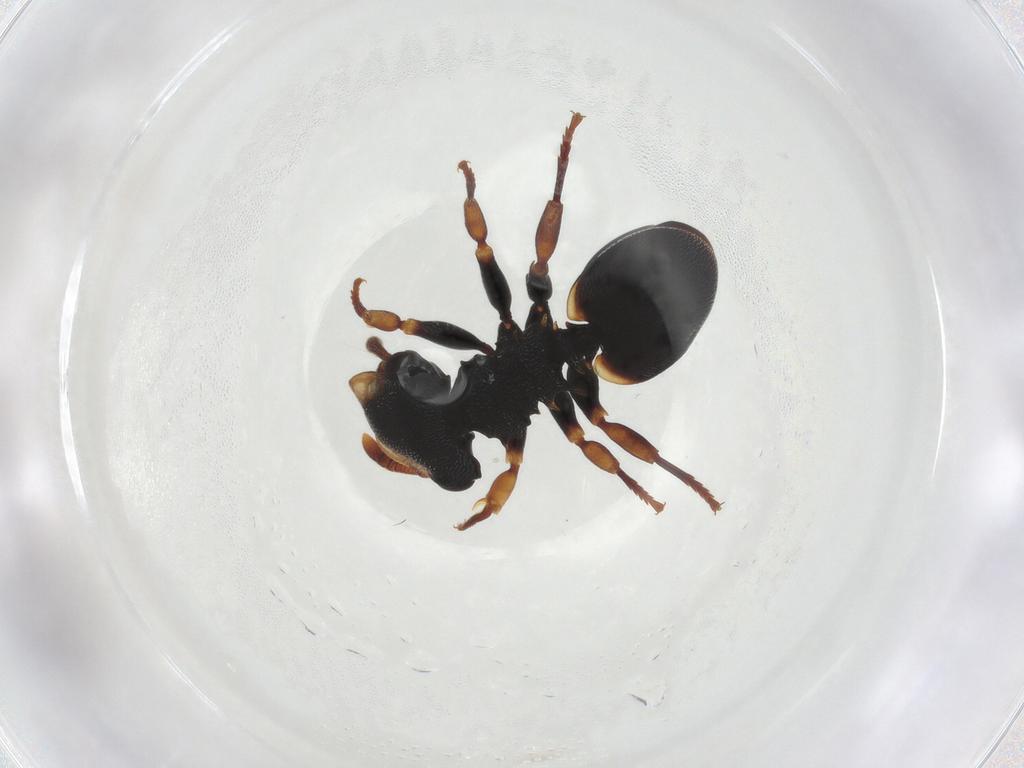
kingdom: Animalia
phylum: Arthropoda
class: Insecta
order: Hymenoptera
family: Formicidae
